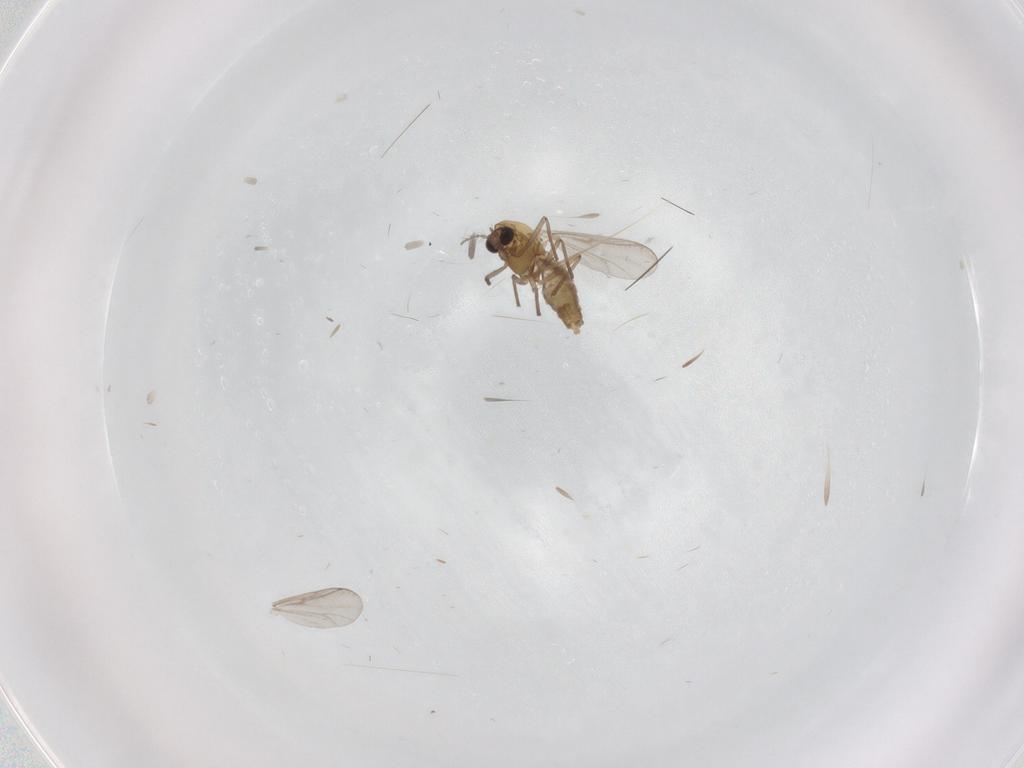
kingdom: Animalia
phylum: Arthropoda
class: Insecta
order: Diptera
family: Chironomidae
